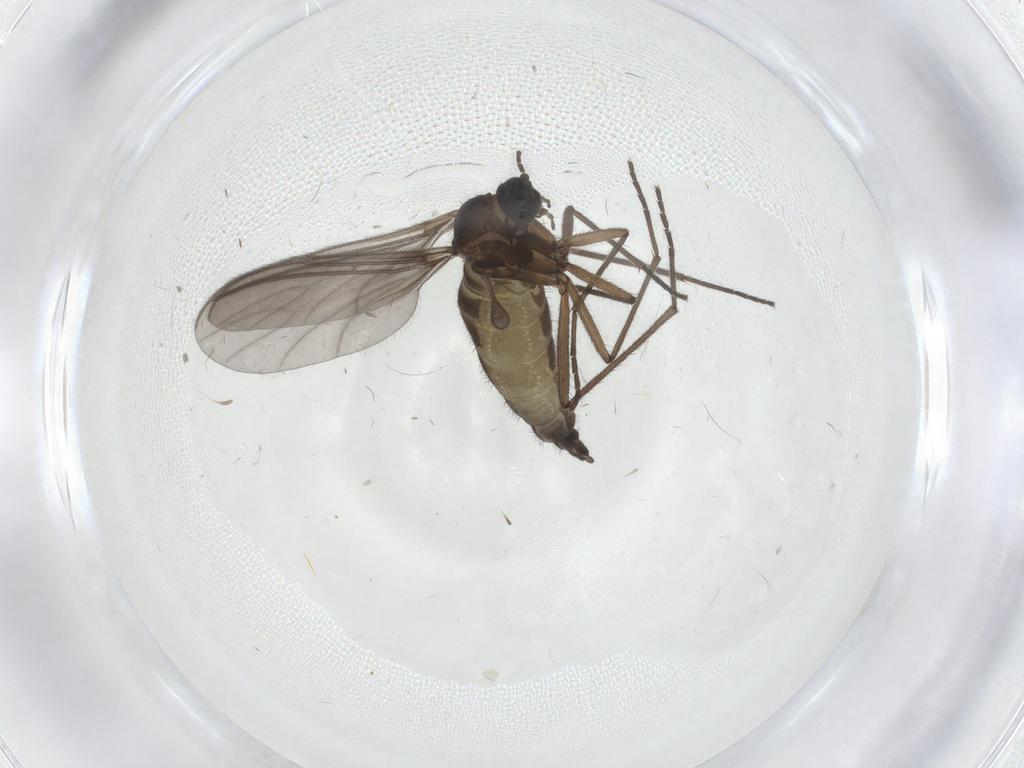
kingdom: Animalia
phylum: Arthropoda
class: Insecta
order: Diptera
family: Sciaridae
